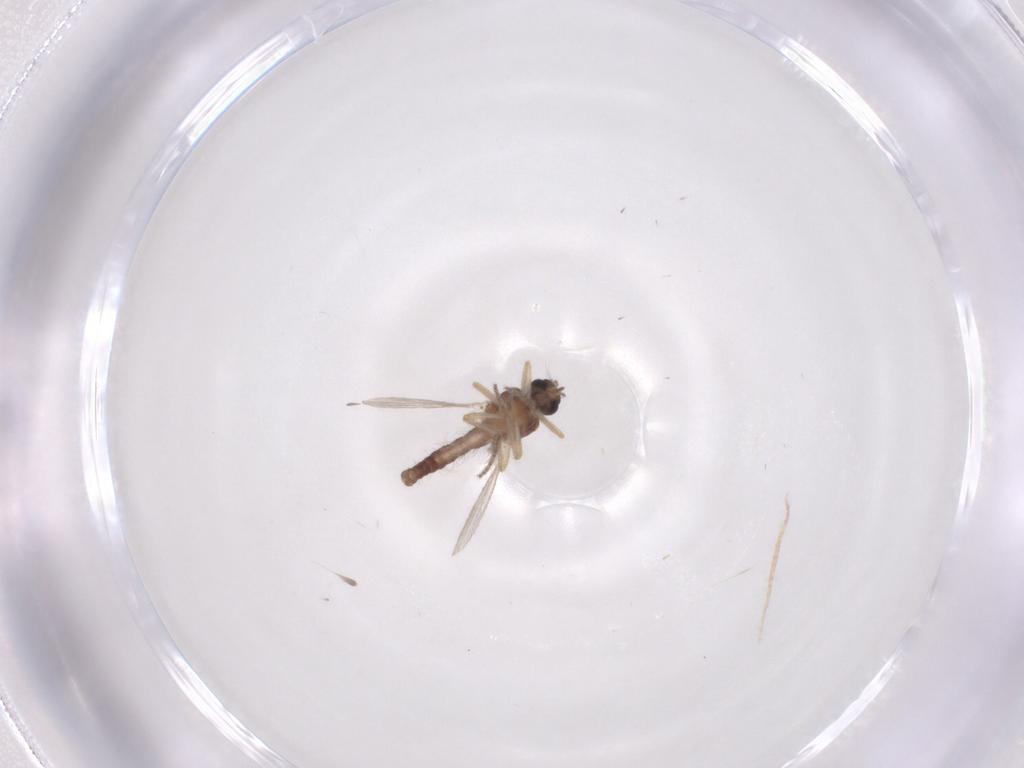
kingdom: Animalia
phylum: Arthropoda
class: Insecta
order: Diptera
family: Ceratopogonidae
